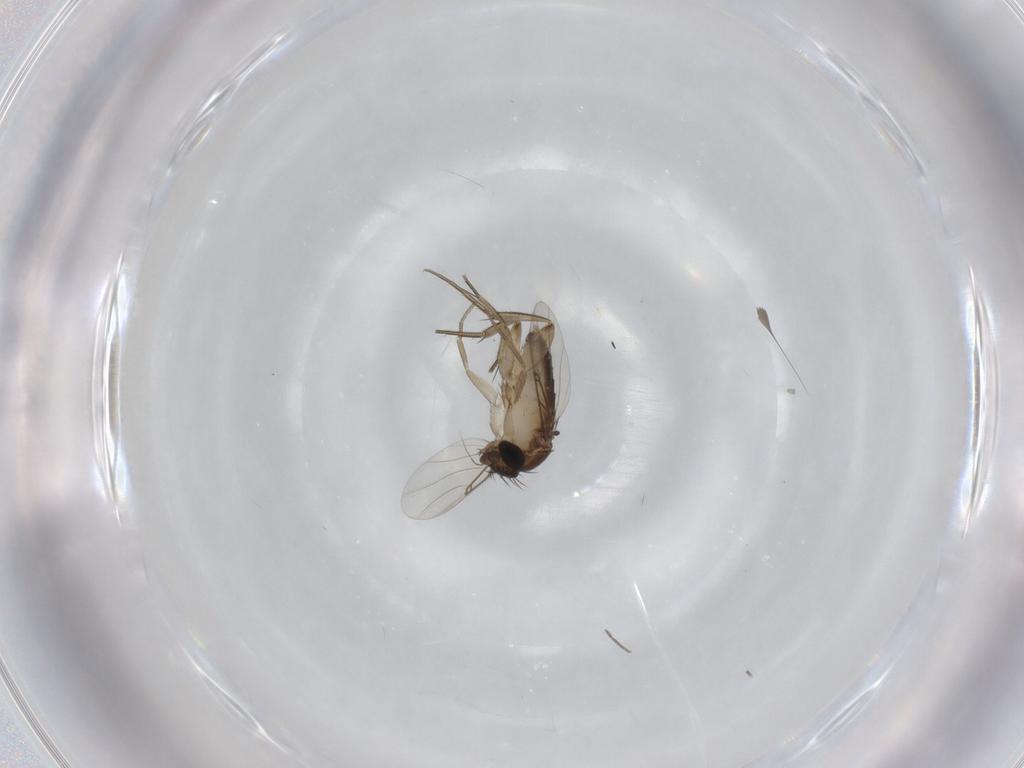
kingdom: Animalia
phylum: Arthropoda
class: Insecta
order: Diptera
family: Phoridae
